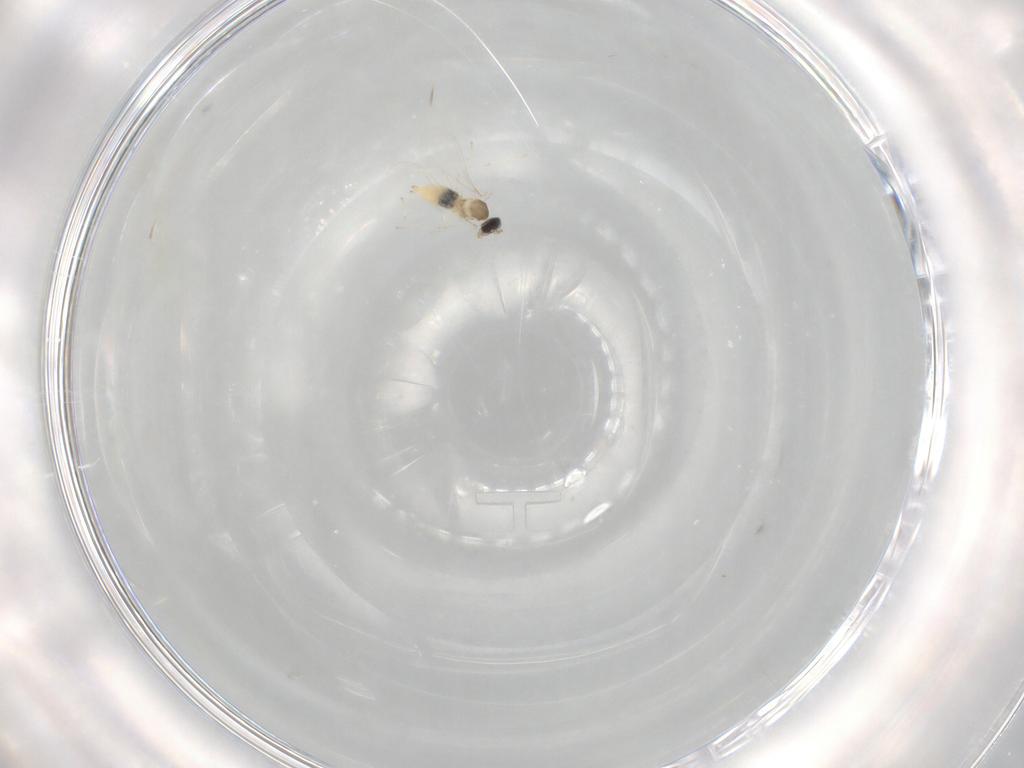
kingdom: Animalia
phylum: Arthropoda
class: Insecta
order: Diptera
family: Cecidomyiidae
